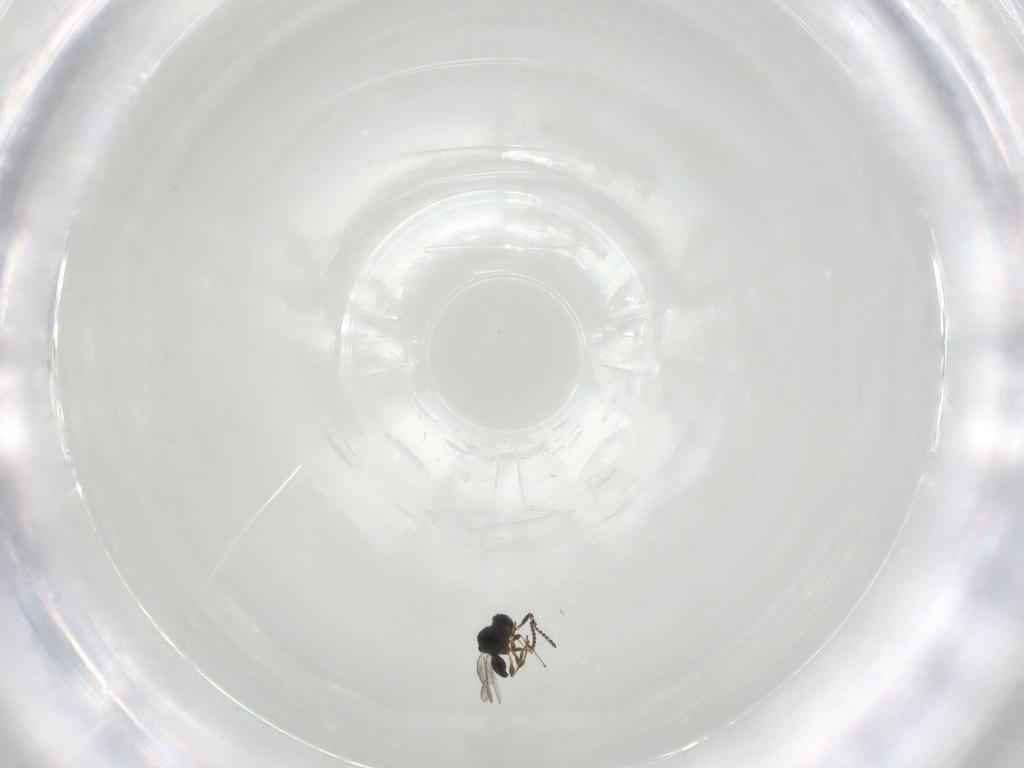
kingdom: Animalia
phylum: Arthropoda
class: Insecta
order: Hymenoptera
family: Platygastridae
